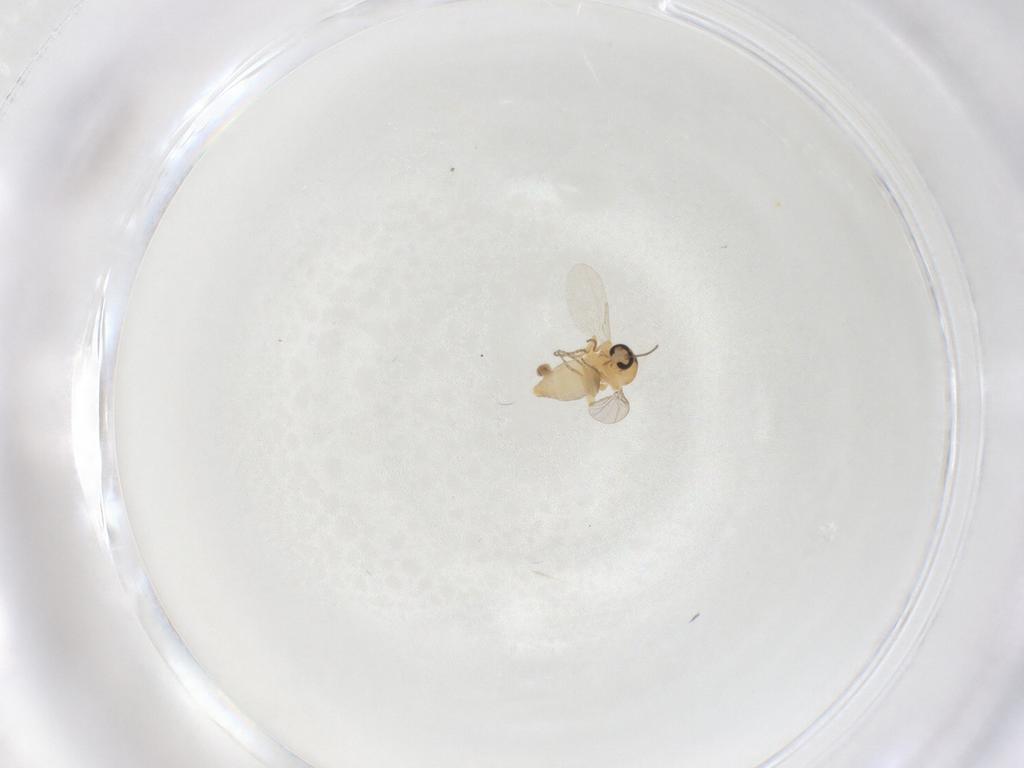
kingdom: Animalia
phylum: Arthropoda
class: Insecta
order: Diptera
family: Ceratopogonidae
